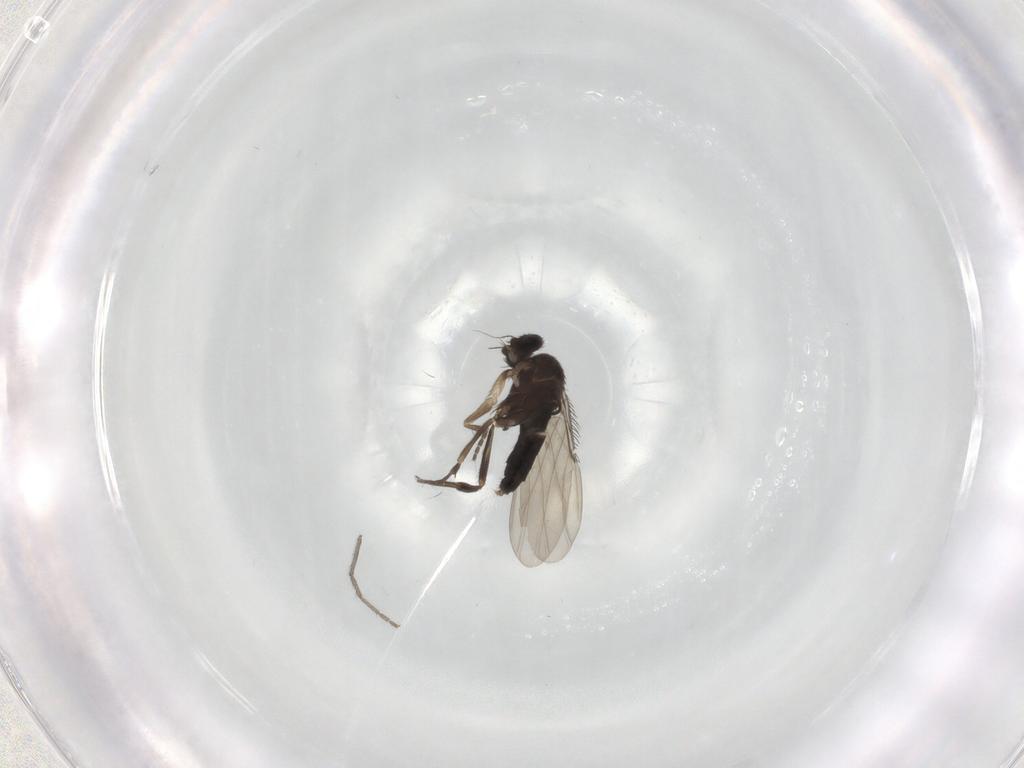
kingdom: Animalia
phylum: Arthropoda
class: Insecta
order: Diptera
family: Phoridae
